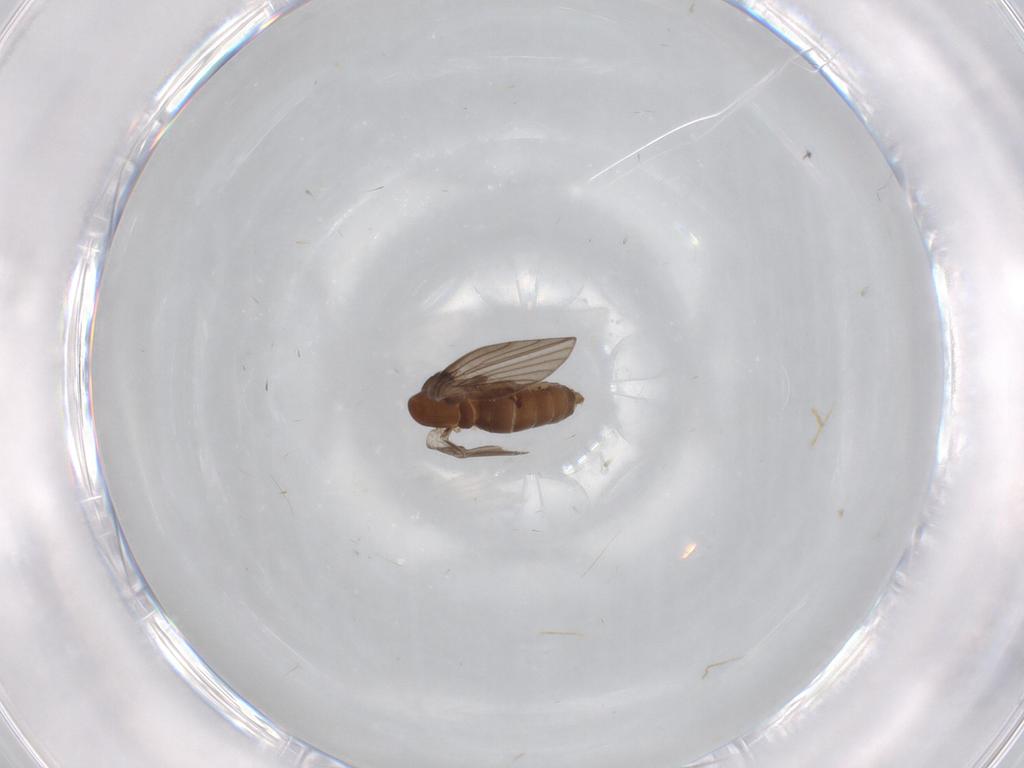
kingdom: Animalia
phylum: Arthropoda
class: Insecta
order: Diptera
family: Psychodidae
